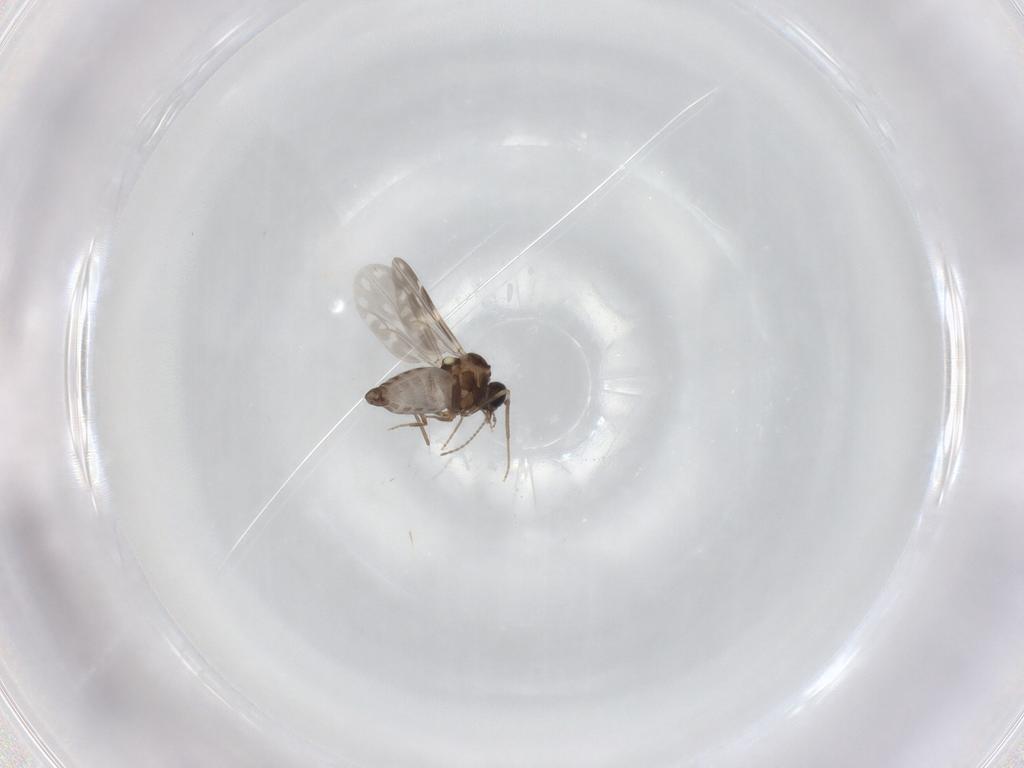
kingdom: Animalia
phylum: Arthropoda
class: Insecta
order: Diptera
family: Ceratopogonidae
